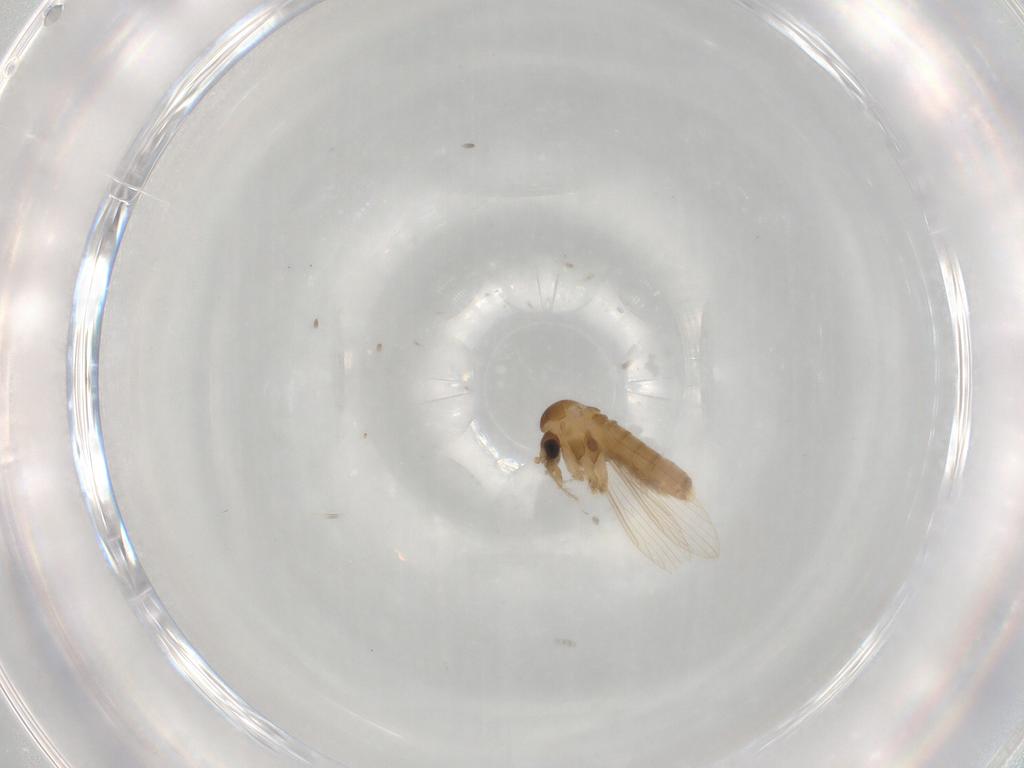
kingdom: Animalia
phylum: Arthropoda
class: Insecta
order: Diptera
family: Psychodidae
